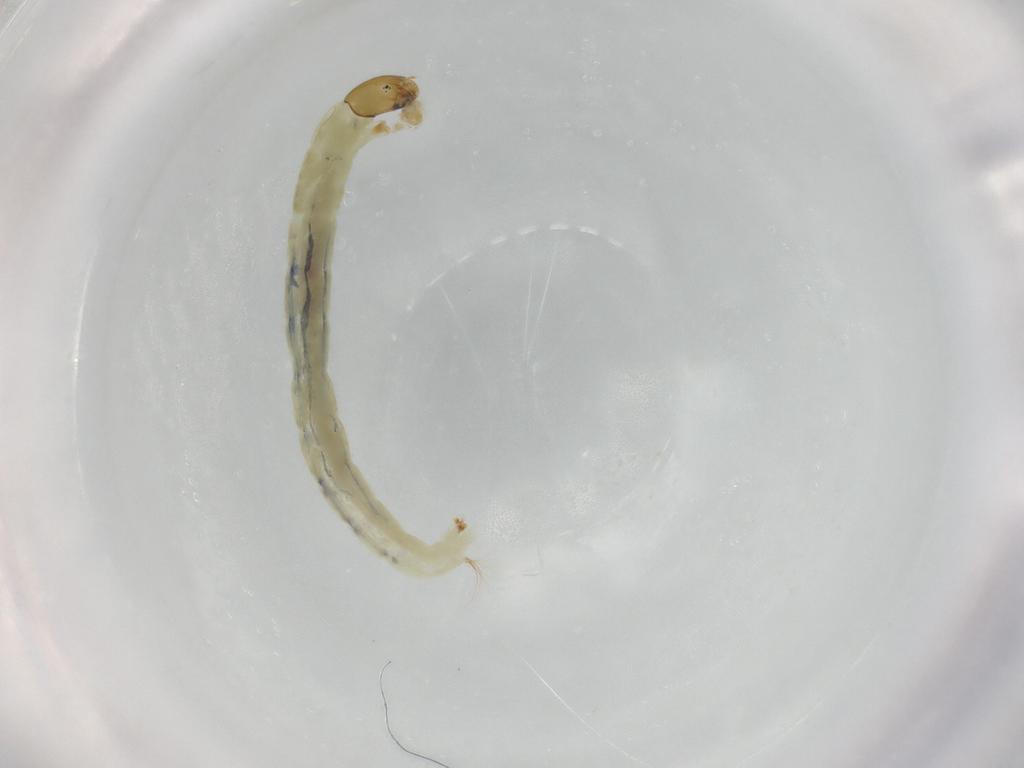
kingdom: Animalia
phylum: Arthropoda
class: Insecta
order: Diptera
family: Chironomidae
